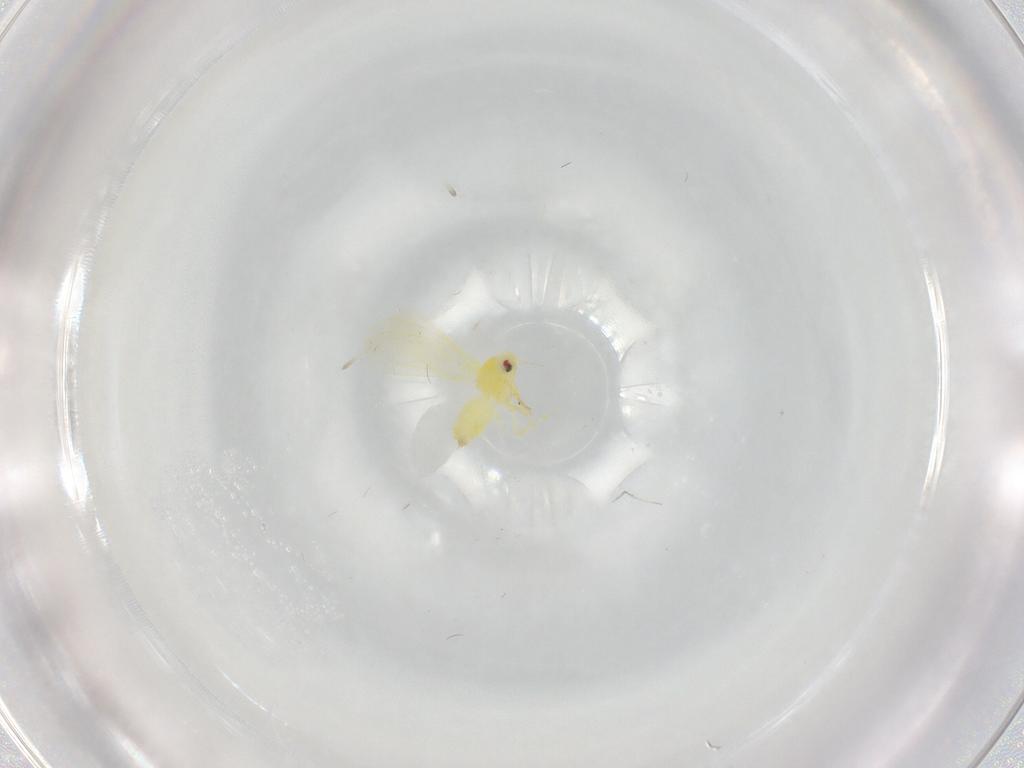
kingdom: Animalia
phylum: Arthropoda
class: Insecta
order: Hemiptera
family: Aleyrodidae
